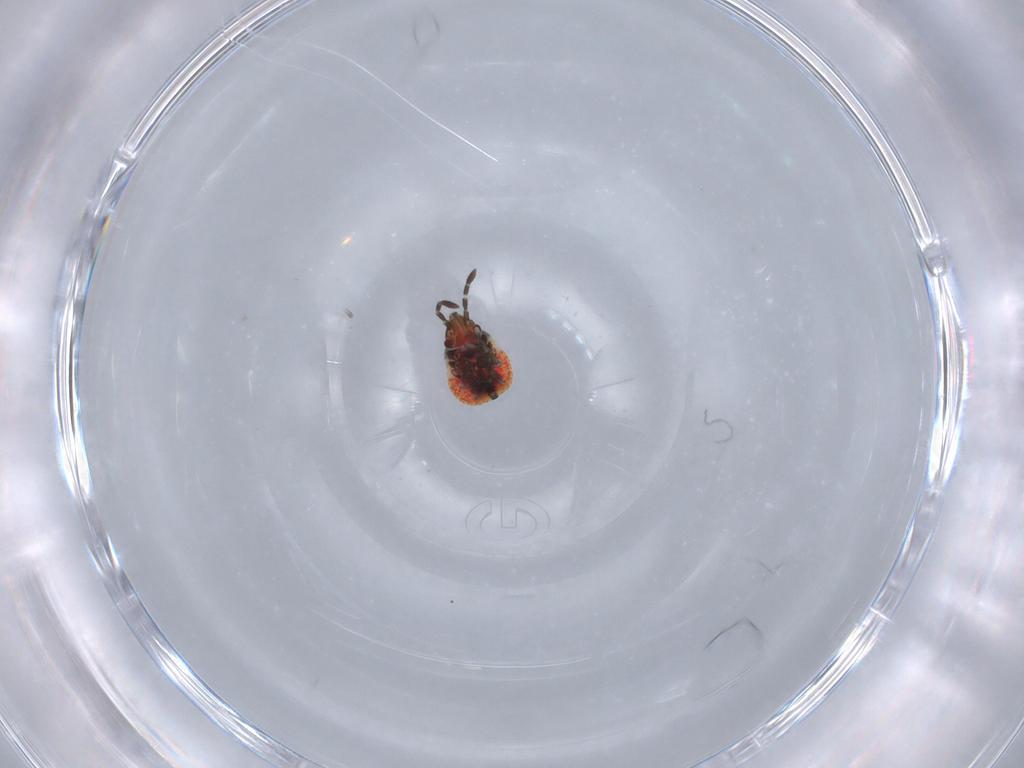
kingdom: Animalia
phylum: Arthropoda
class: Insecta
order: Hemiptera
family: Rhyparochromidae
